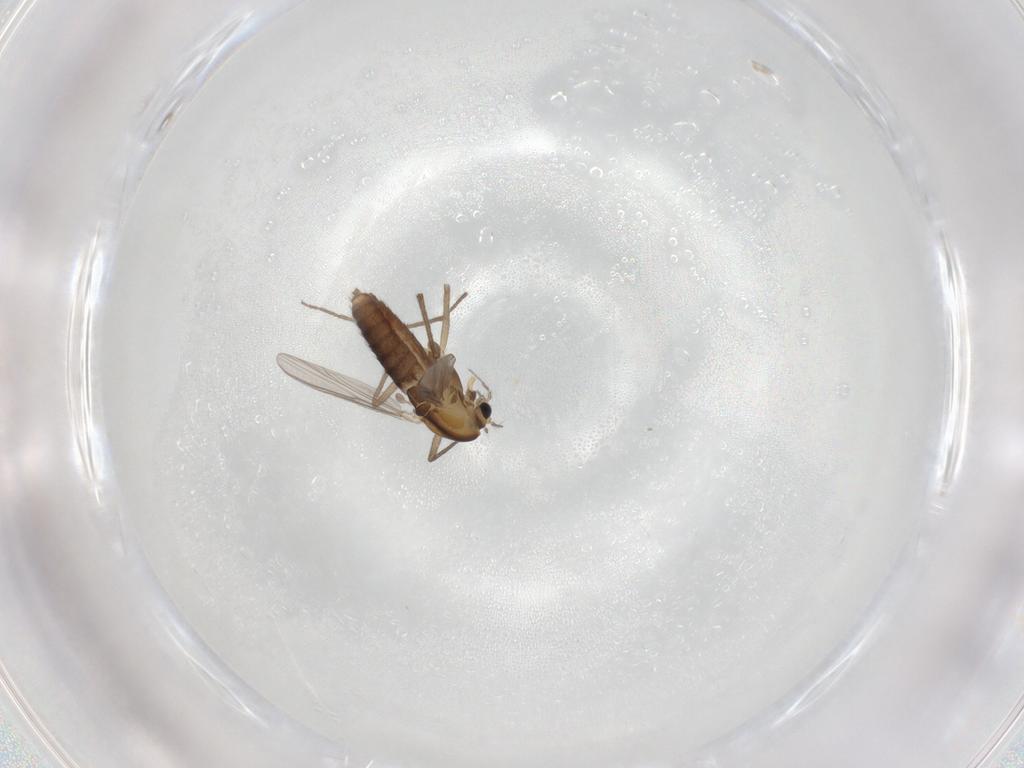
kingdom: Animalia
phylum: Arthropoda
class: Insecta
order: Diptera
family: Chironomidae
